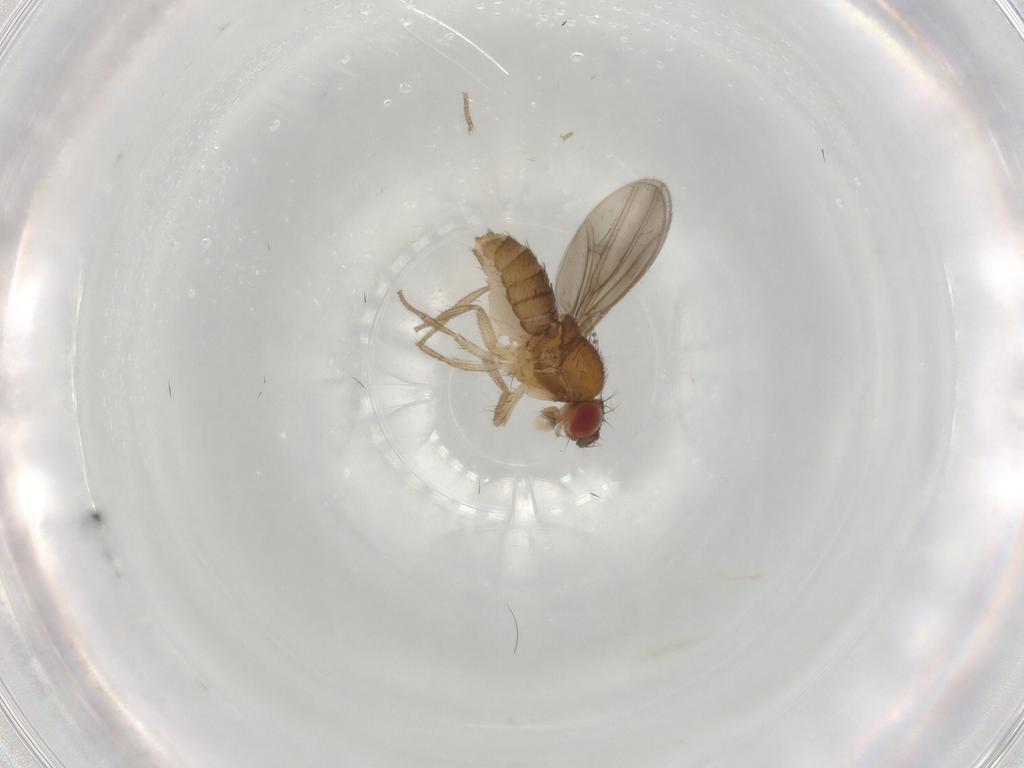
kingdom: Animalia
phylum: Arthropoda
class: Insecta
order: Diptera
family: Drosophilidae
